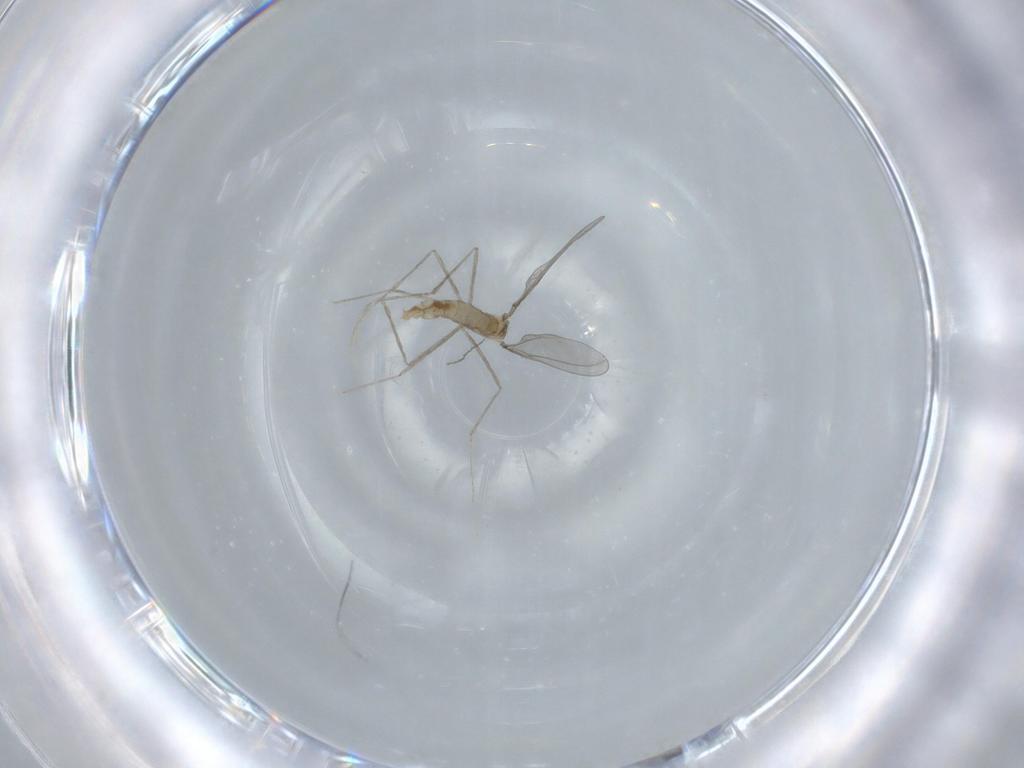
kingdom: Animalia
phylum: Arthropoda
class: Insecta
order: Diptera
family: Cecidomyiidae
